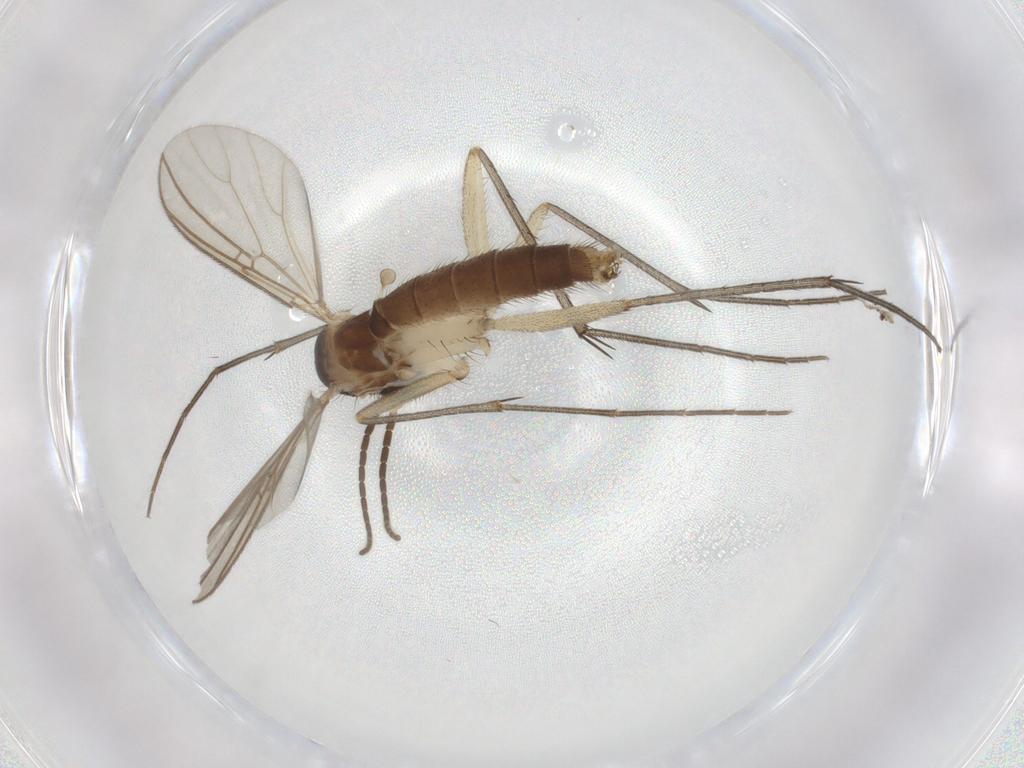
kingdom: Animalia
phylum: Arthropoda
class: Insecta
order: Diptera
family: Mycetophilidae
